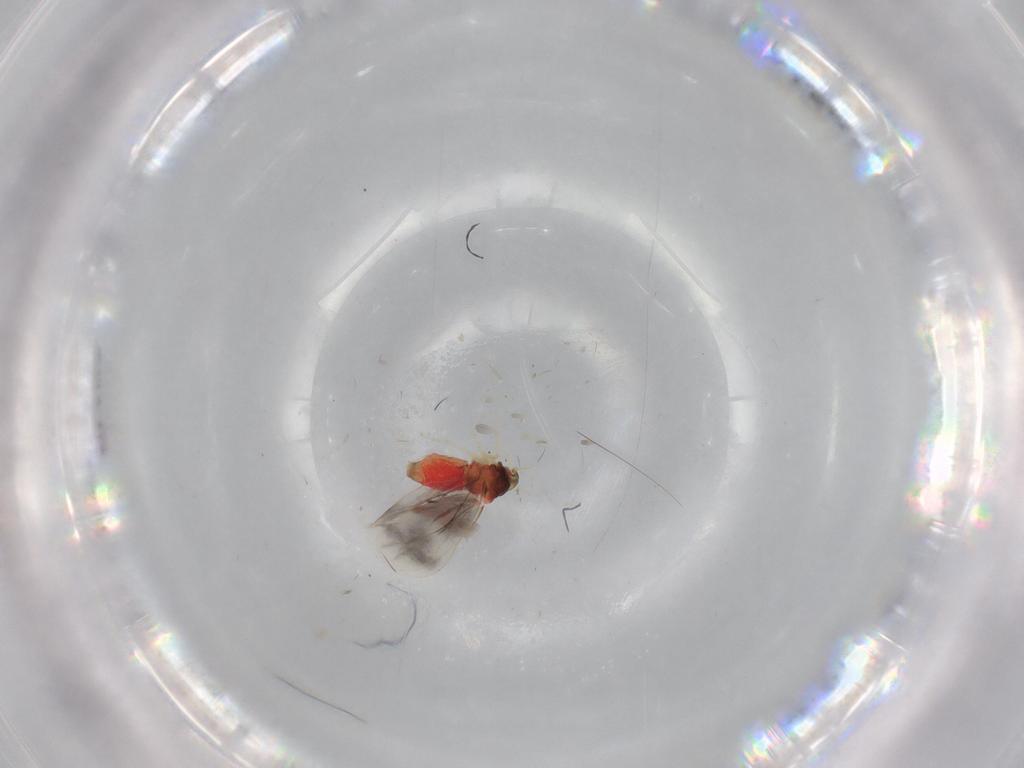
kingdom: Animalia
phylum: Arthropoda
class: Insecta
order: Hemiptera
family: Aleyrodidae
